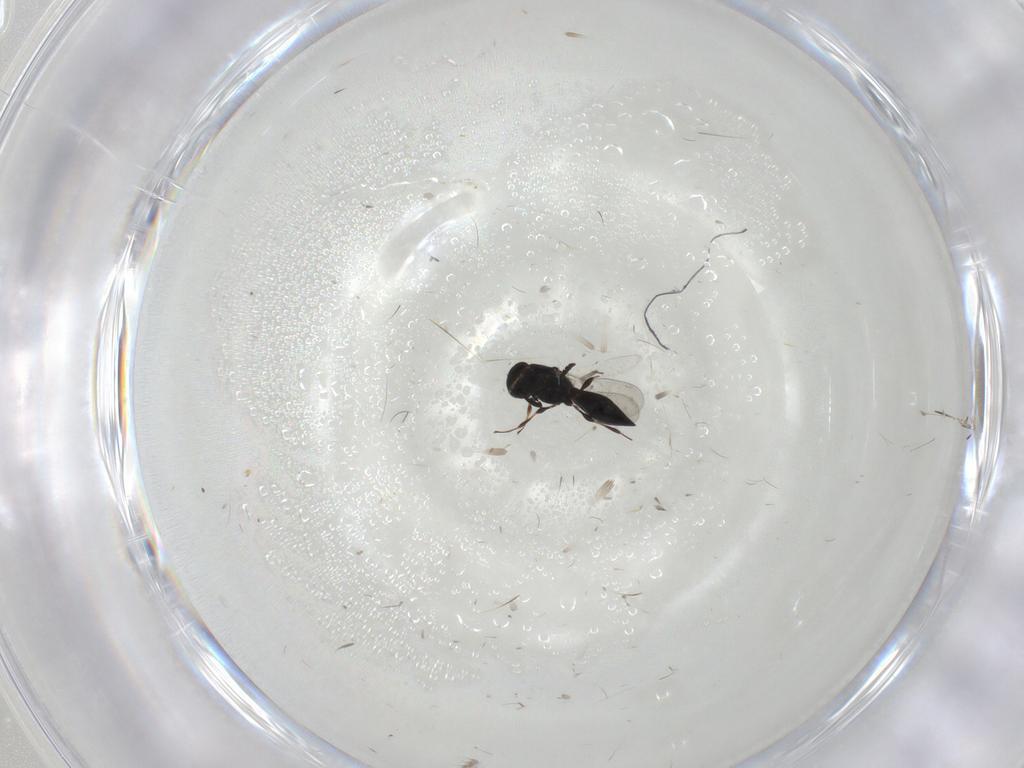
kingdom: Animalia
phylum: Arthropoda
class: Insecta
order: Hymenoptera
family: Platygastridae
